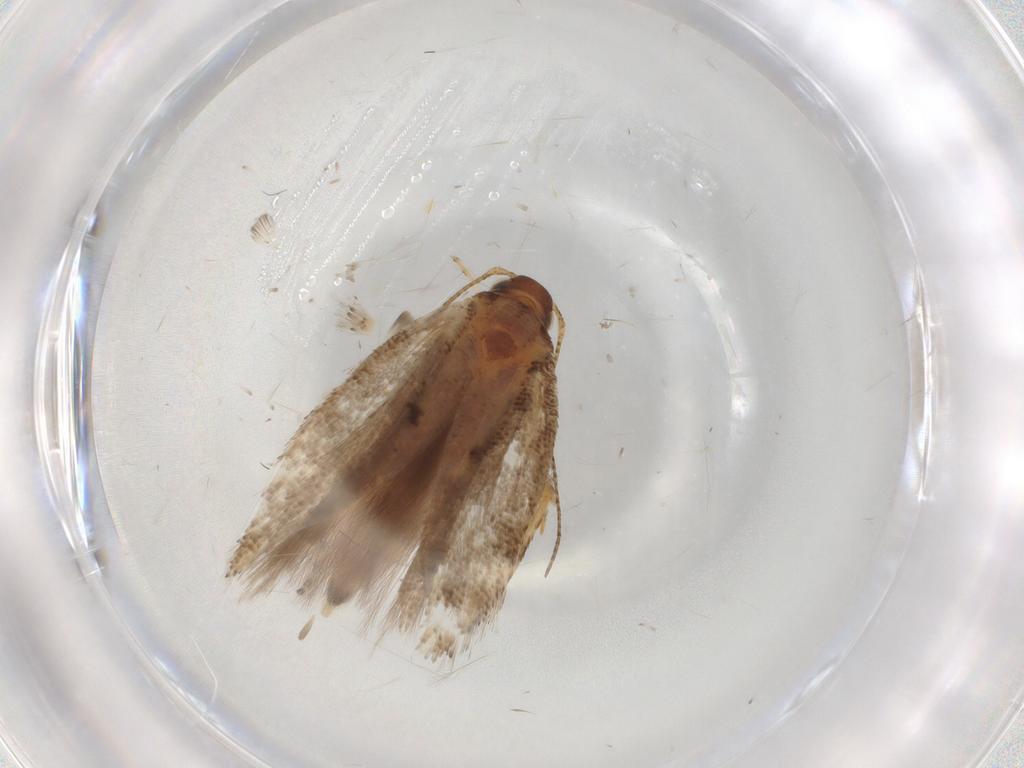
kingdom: Animalia
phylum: Arthropoda
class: Insecta
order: Lepidoptera
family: Gelechiidae
